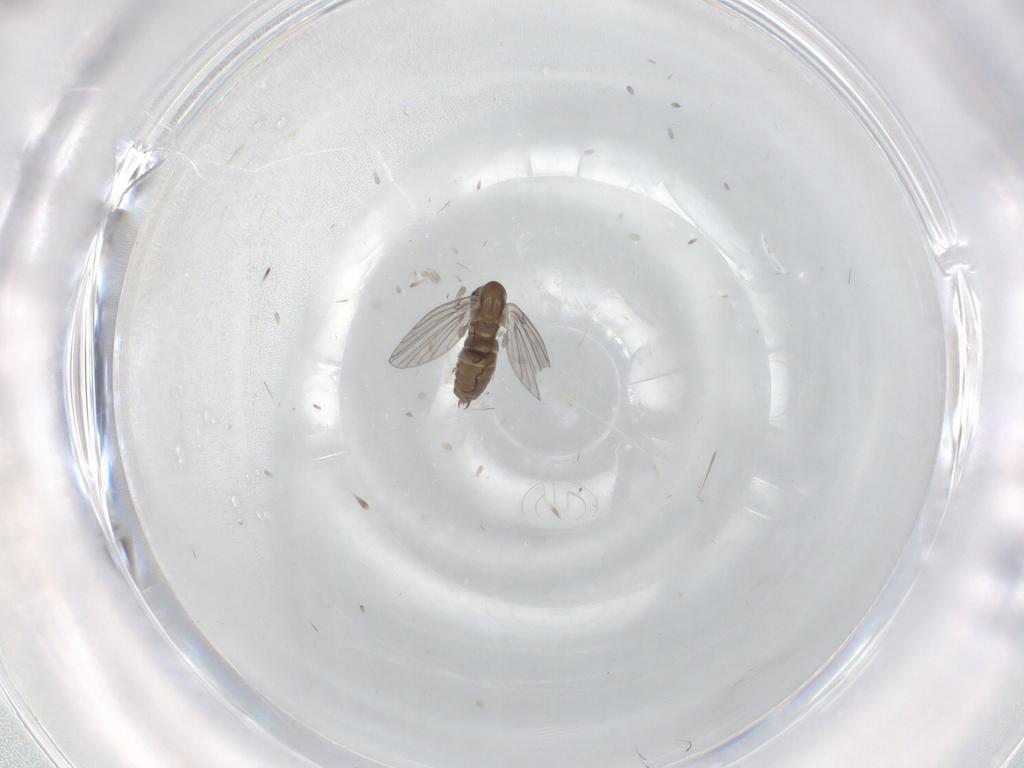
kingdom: Animalia
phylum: Arthropoda
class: Insecta
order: Diptera
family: Ditomyiidae
